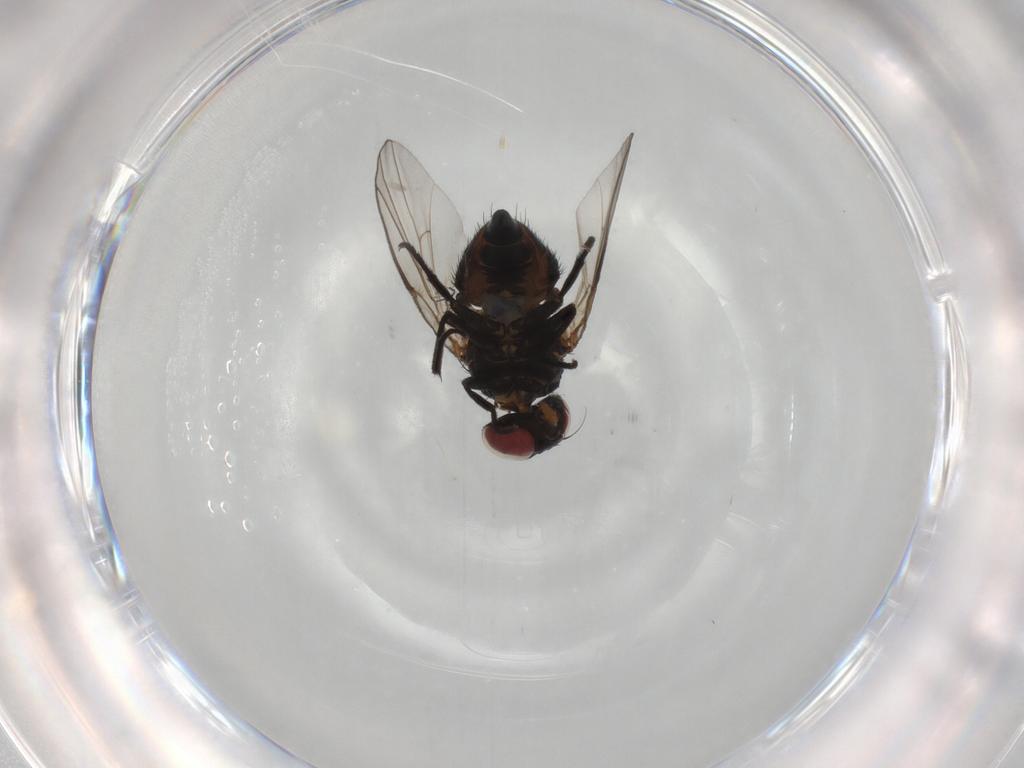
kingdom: Animalia
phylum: Arthropoda
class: Insecta
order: Diptera
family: Agromyzidae
